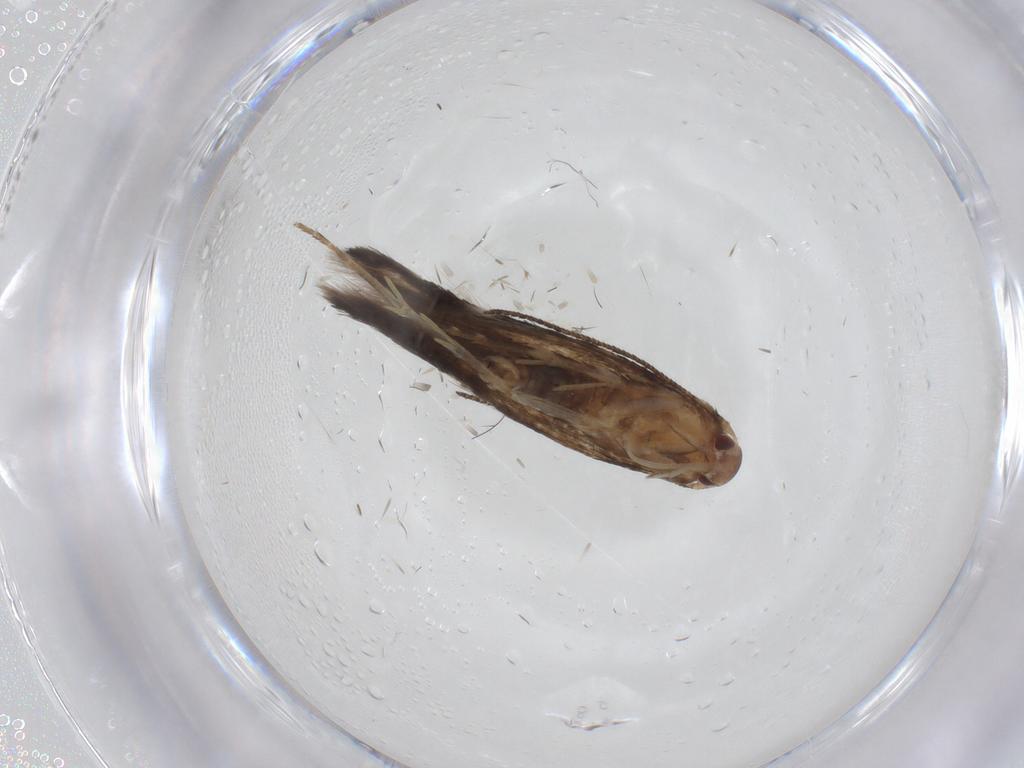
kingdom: Animalia
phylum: Arthropoda
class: Insecta
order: Lepidoptera
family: Momphidae
